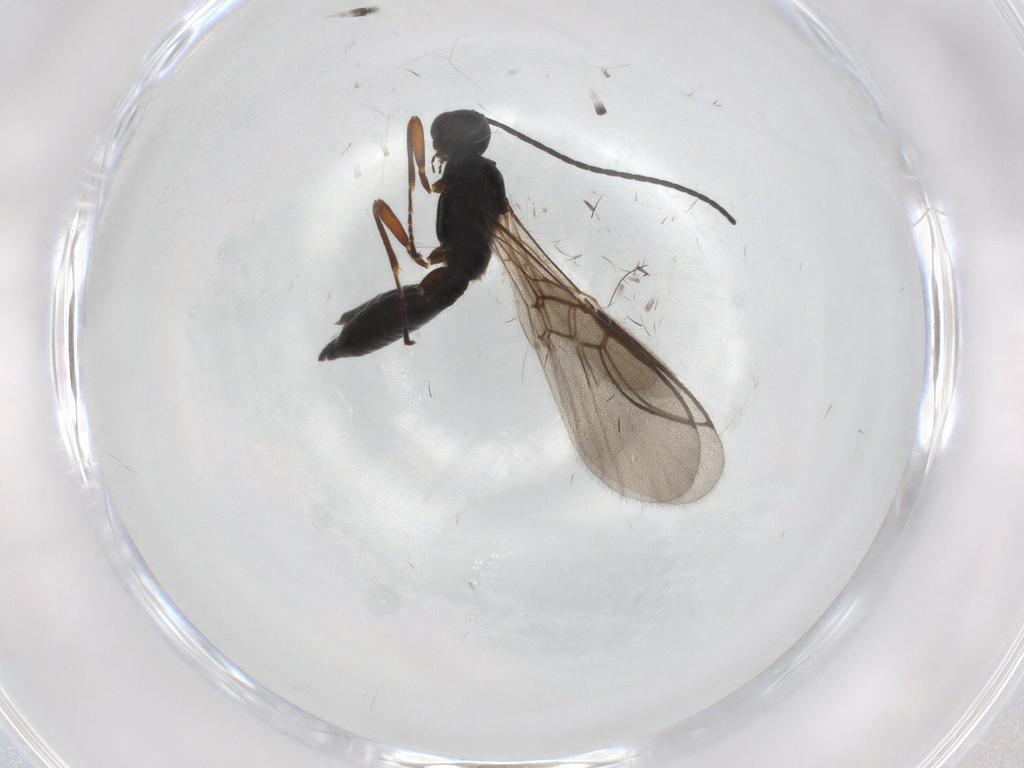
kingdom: Animalia
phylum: Arthropoda
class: Insecta
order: Hymenoptera
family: Braconidae
